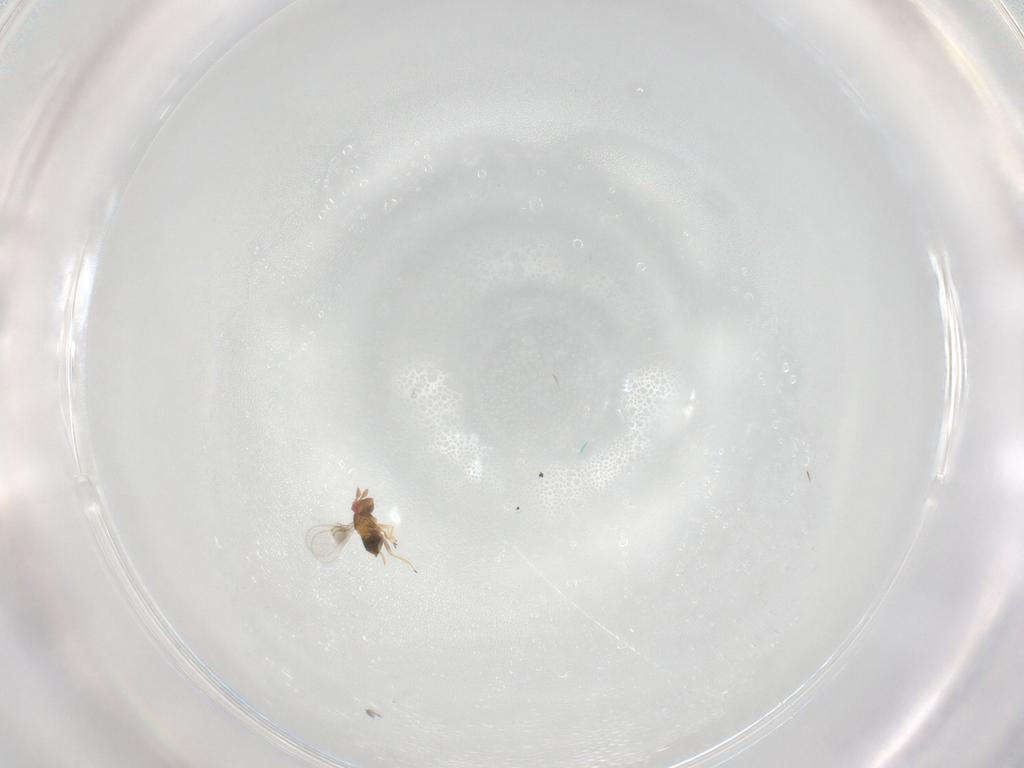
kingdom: Animalia
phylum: Arthropoda
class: Insecta
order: Hymenoptera
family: Trichogrammatidae
